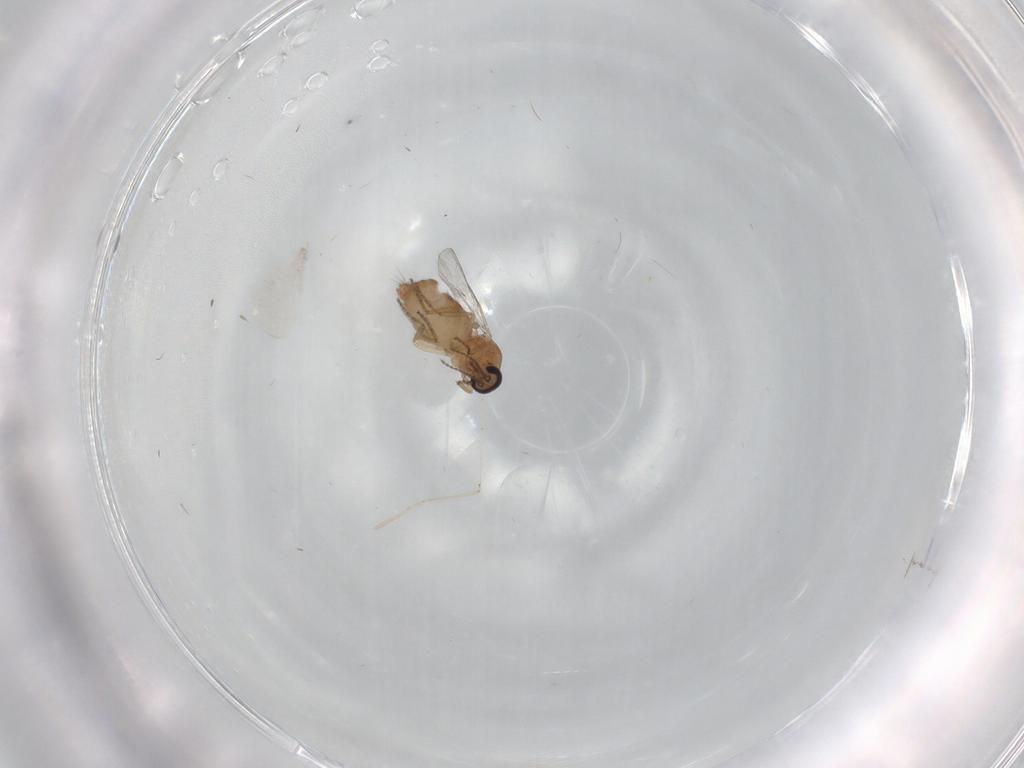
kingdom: Animalia
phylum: Arthropoda
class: Insecta
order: Diptera
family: Ceratopogonidae
